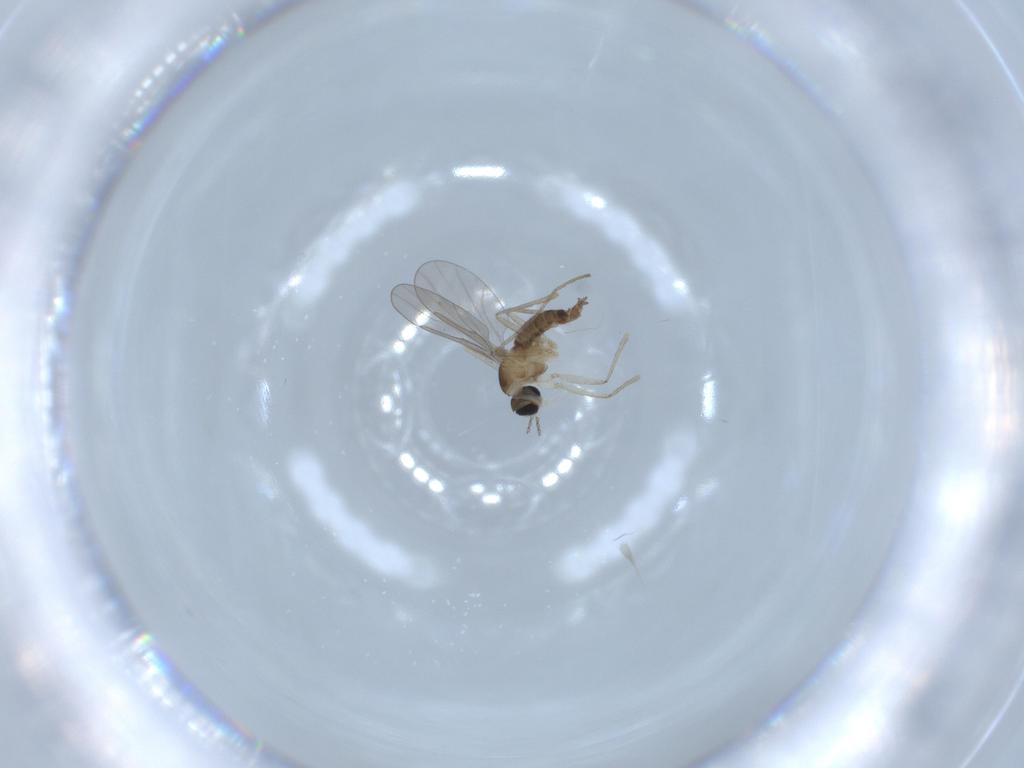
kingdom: Animalia
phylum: Arthropoda
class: Insecta
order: Diptera
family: Cecidomyiidae
